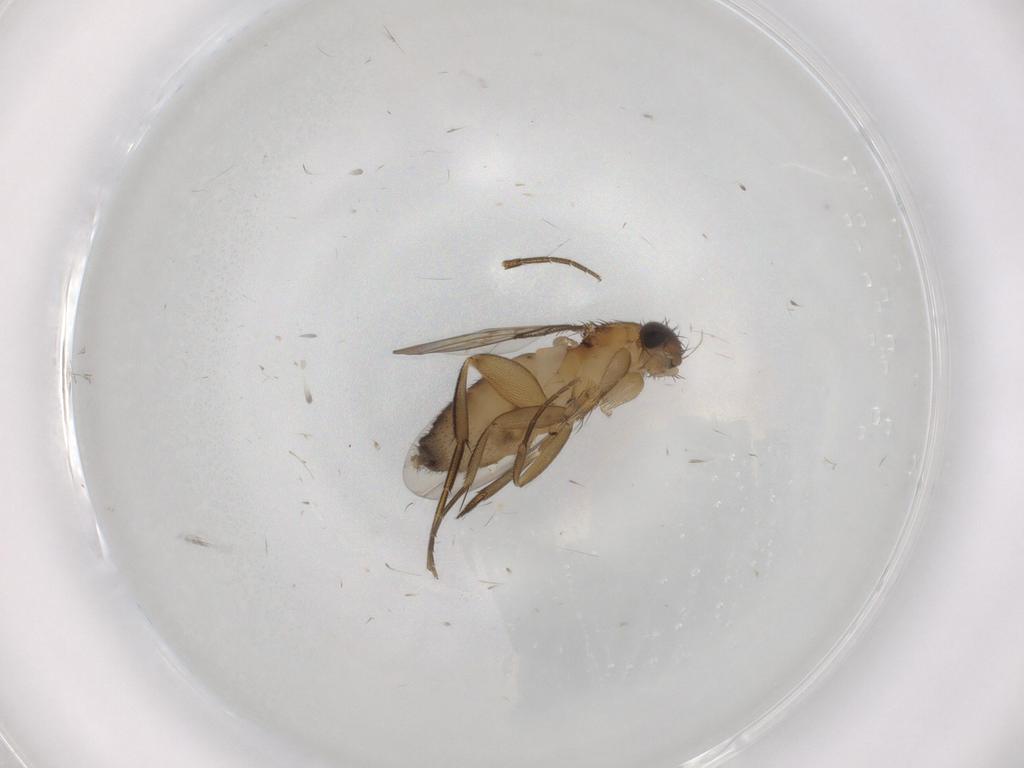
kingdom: Animalia
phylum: Arthropoda
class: Insecta
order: Diptera
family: Phoridae
